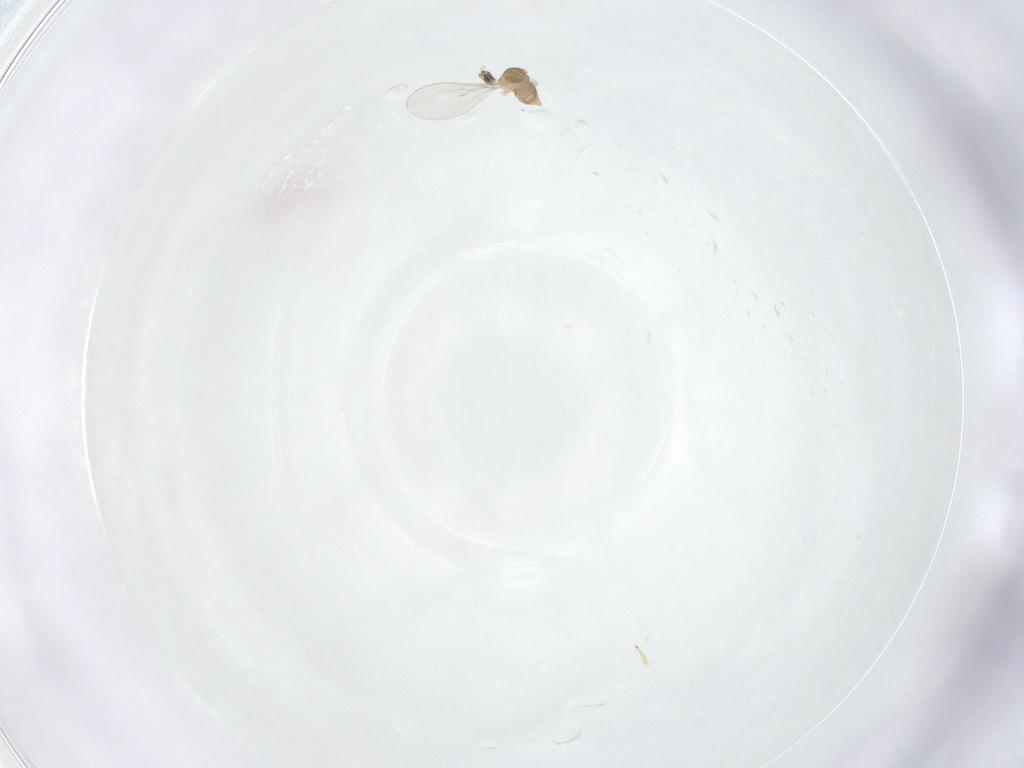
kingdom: Animalia
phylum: Arthropoda
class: Insecta
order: Diptera
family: Cecidomyiidae
